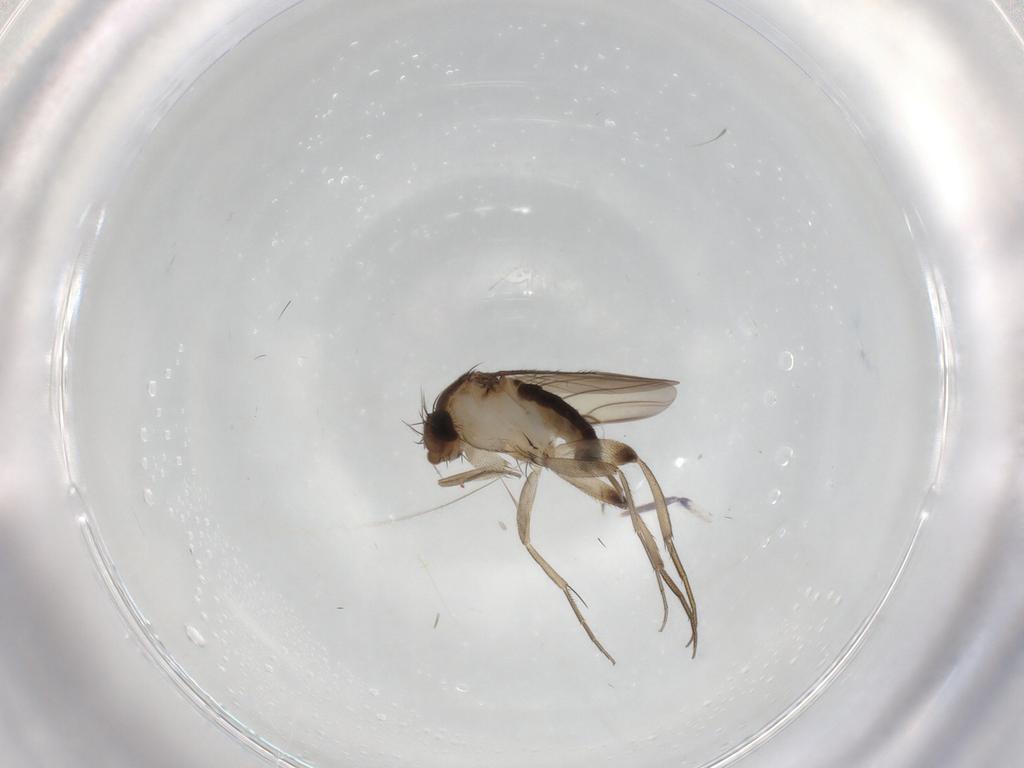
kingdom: Animalia
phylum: Arthropoda
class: Insecta
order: Diptera
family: Phoridae
